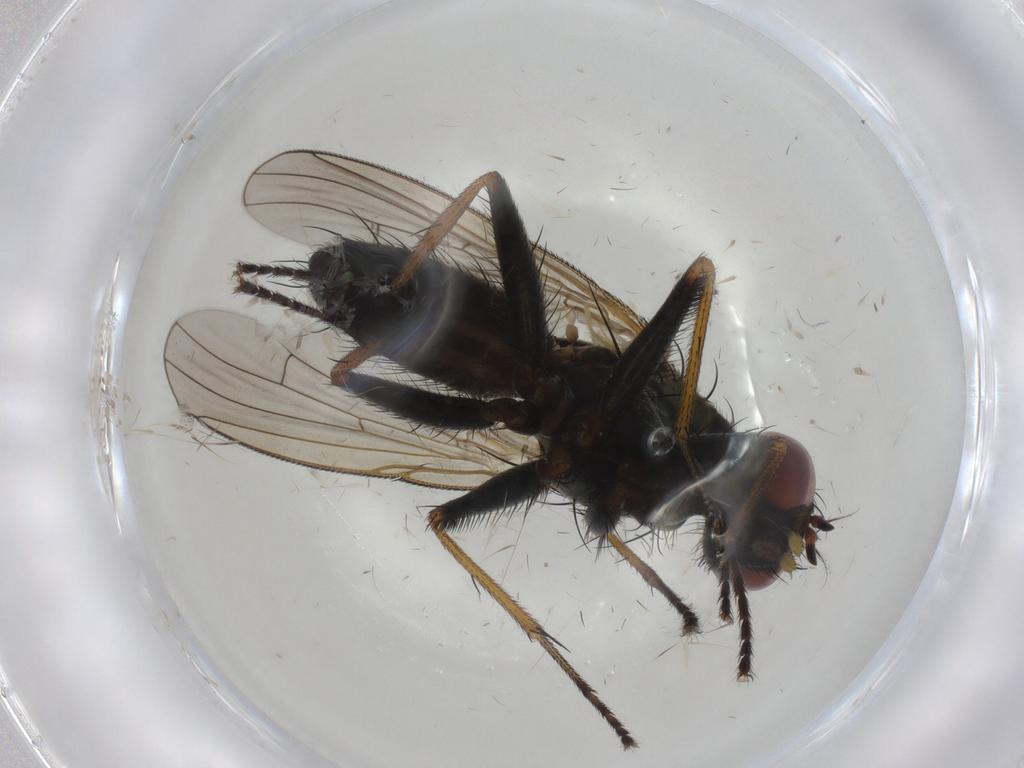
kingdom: Animalia
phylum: Arthropoda
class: Insecta
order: Diptera
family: Muscidae
